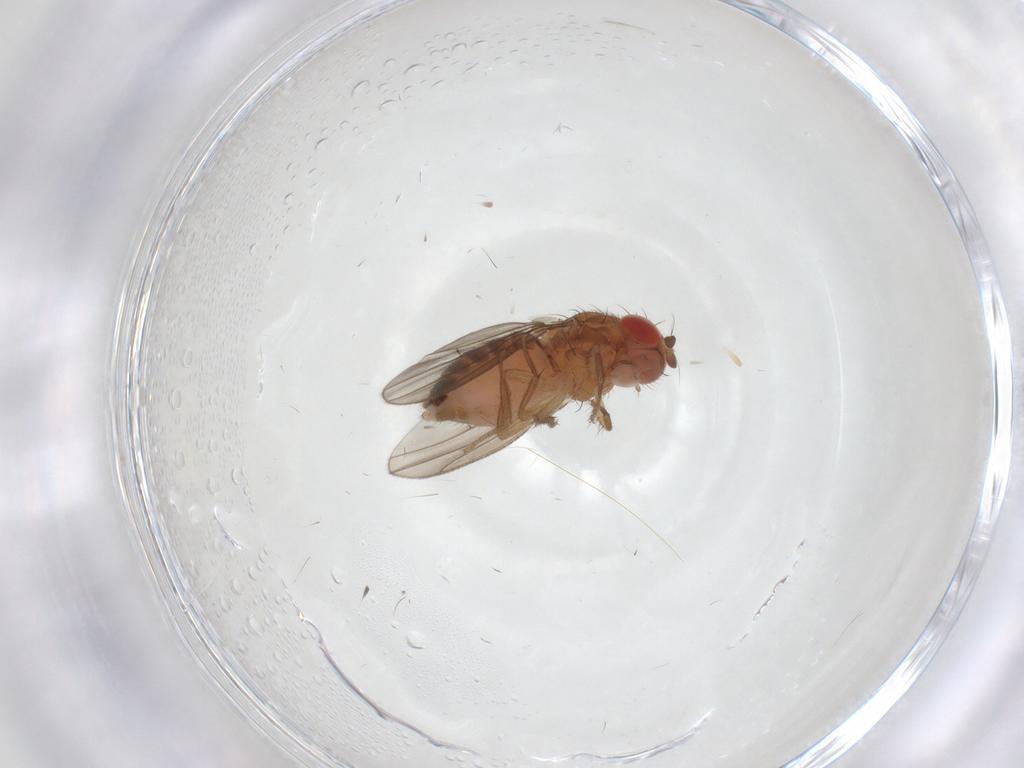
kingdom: Animalia
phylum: Arthropoda
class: Insecta
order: Diptera
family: Drosophilidae
